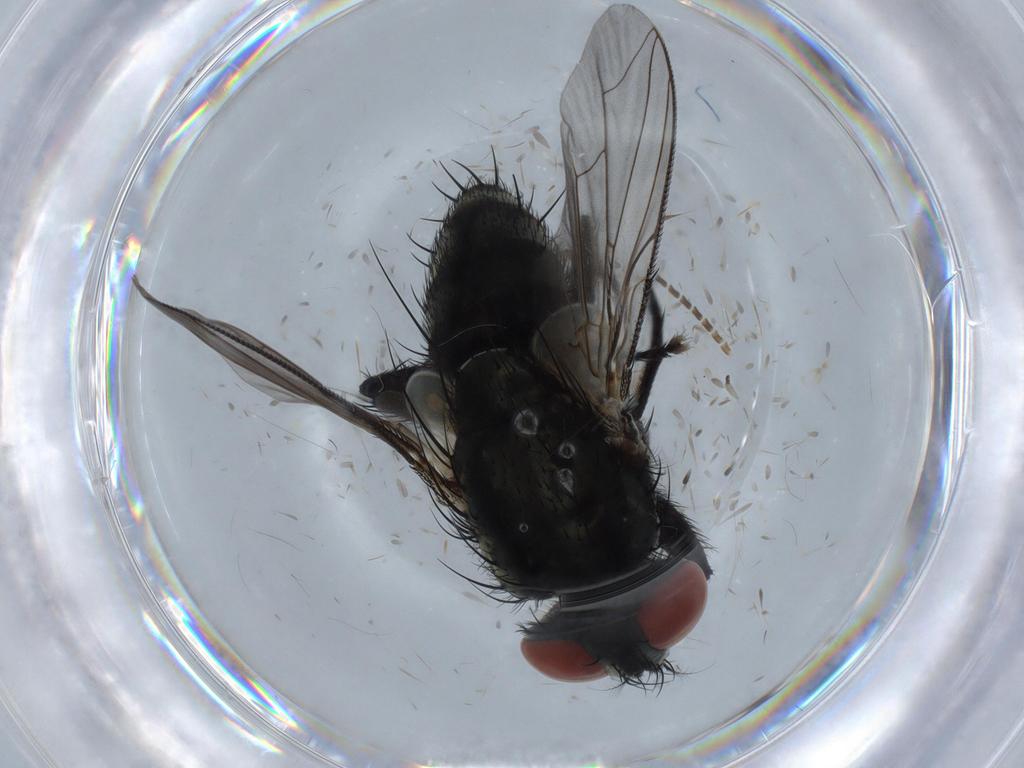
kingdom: Animalia
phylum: Arthropoda
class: Insecta
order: Diptera
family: Sarcophagidae
